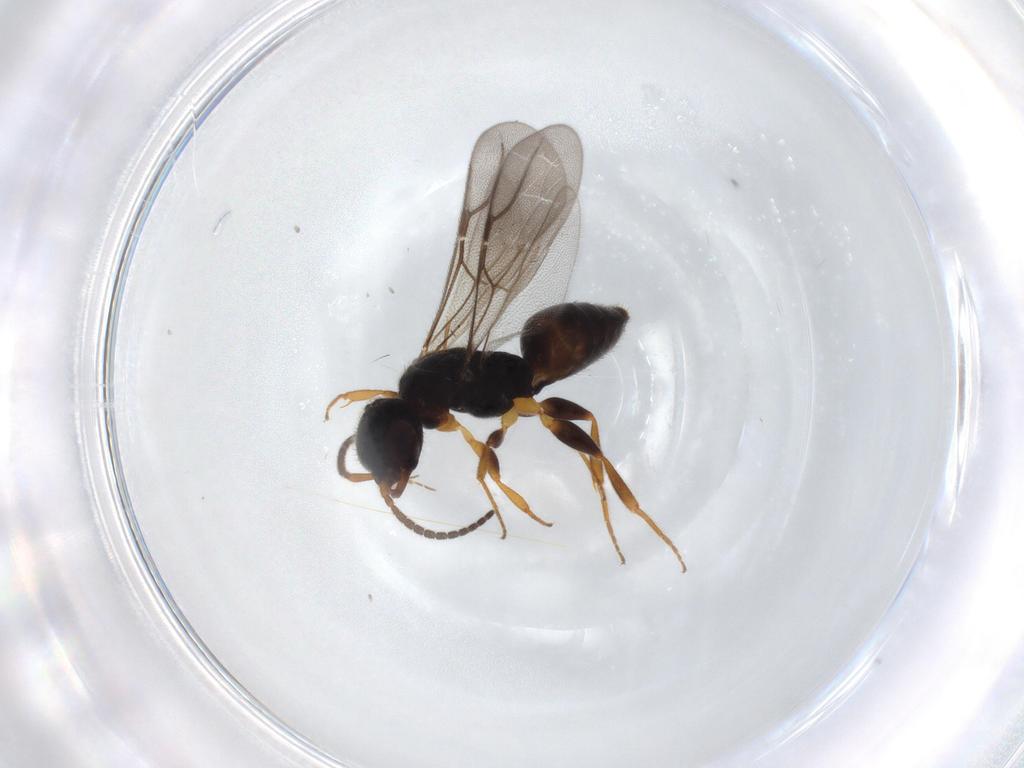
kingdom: Animalia
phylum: Arthropoda
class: Insecta
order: Hymenoptera
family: Bethylidae
